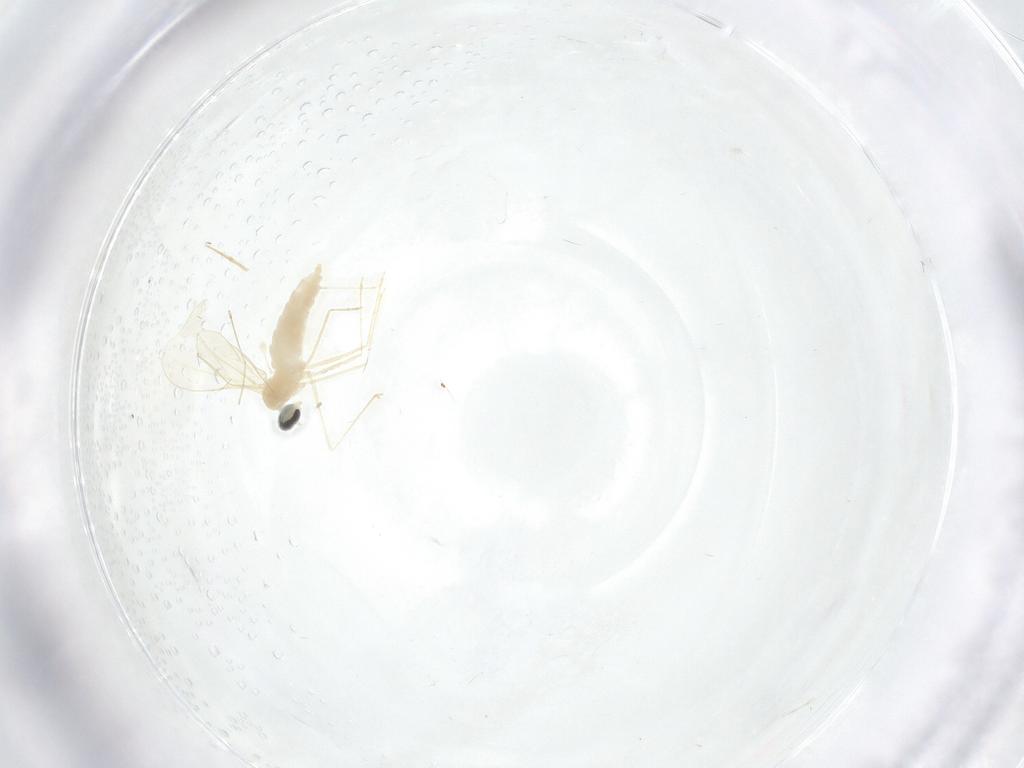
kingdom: Animalia
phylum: Arthropoda
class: Insecta
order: Diptera
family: Cecidomyiidae
